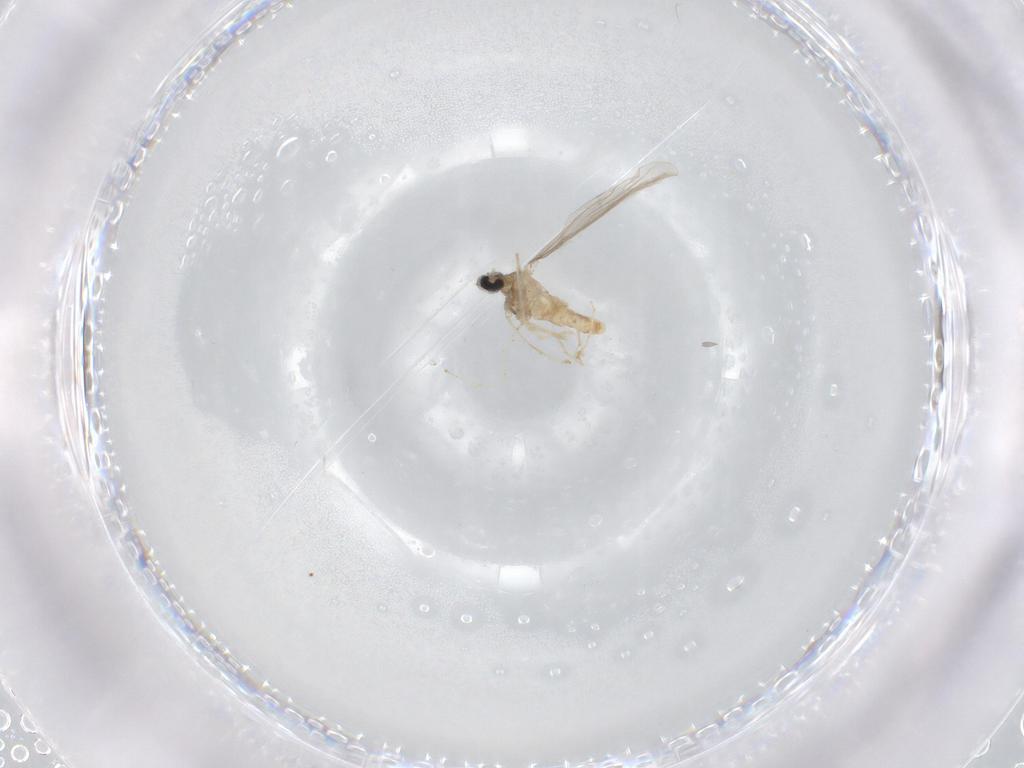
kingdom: Animalia
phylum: Arthropoda
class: Insecta
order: Diptera
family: Cecidomyiidae
